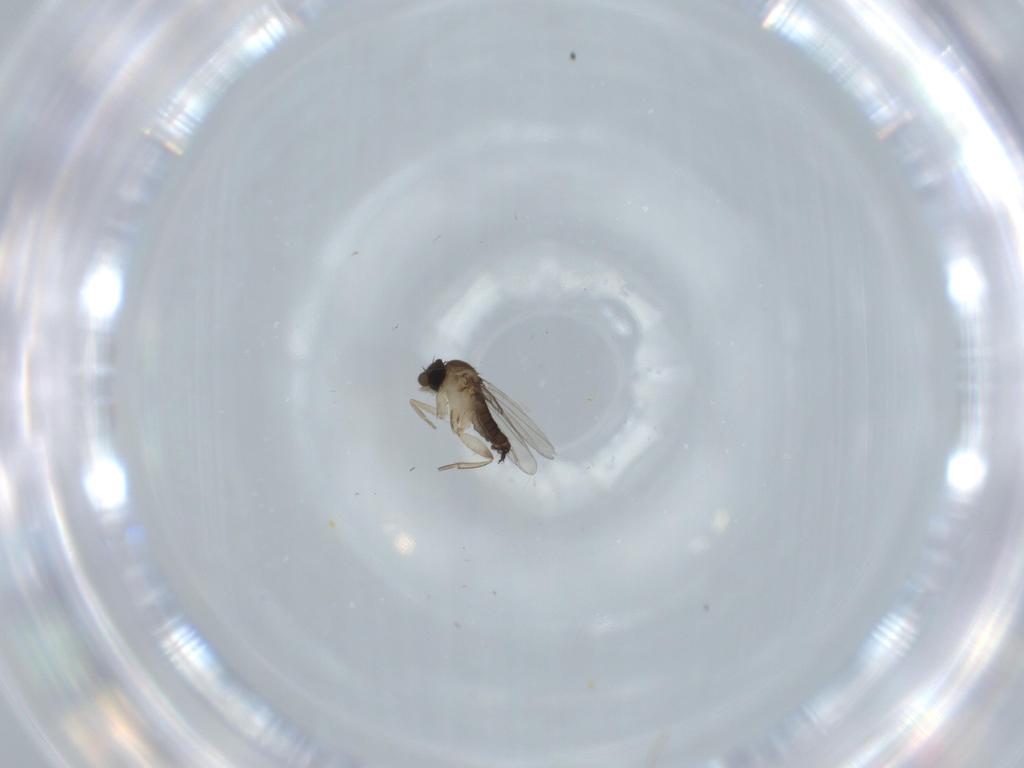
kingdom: Animalia
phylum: Arthropoda
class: Insecta
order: Diptera
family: Phoridae
